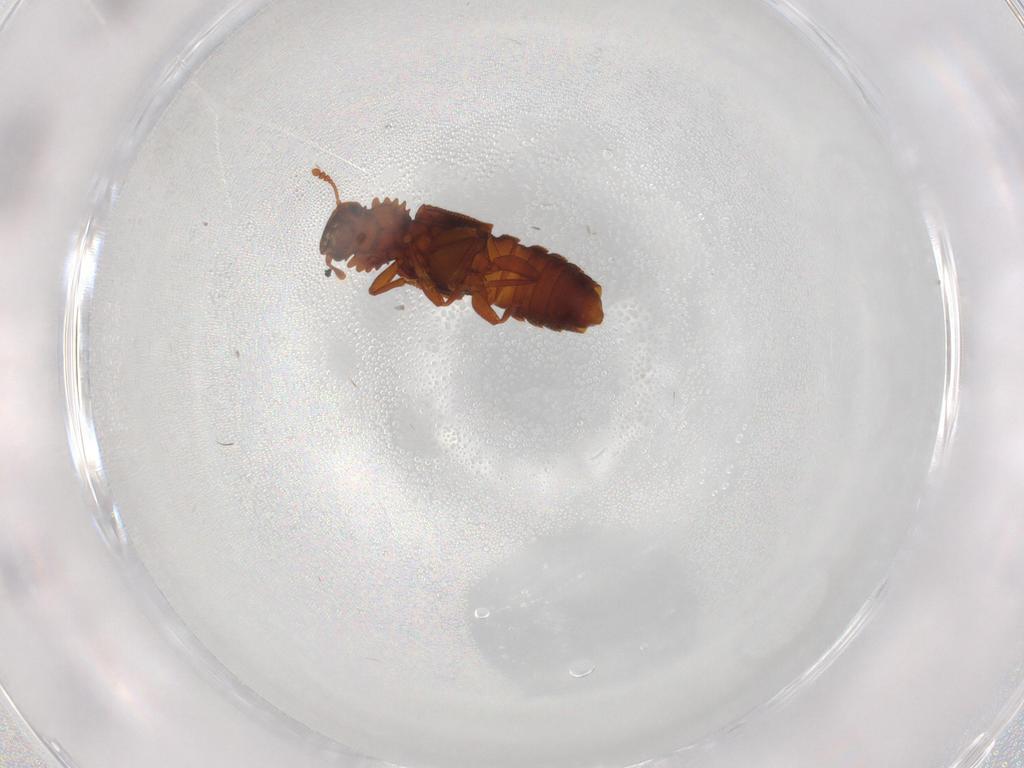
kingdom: Animalia
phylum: Arthropoda
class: Insecta
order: Coleoptera
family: Staphylinidae
